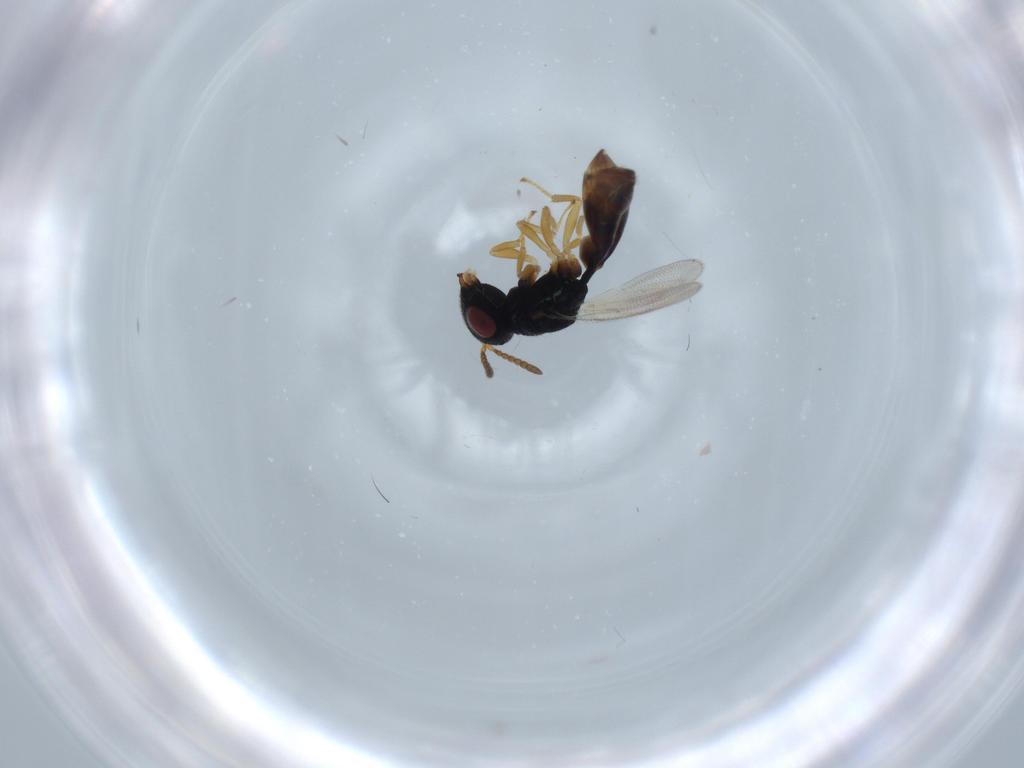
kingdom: Animalia
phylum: Arthropoda
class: Insecta
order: Hymenoptera
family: Pteromalidae
